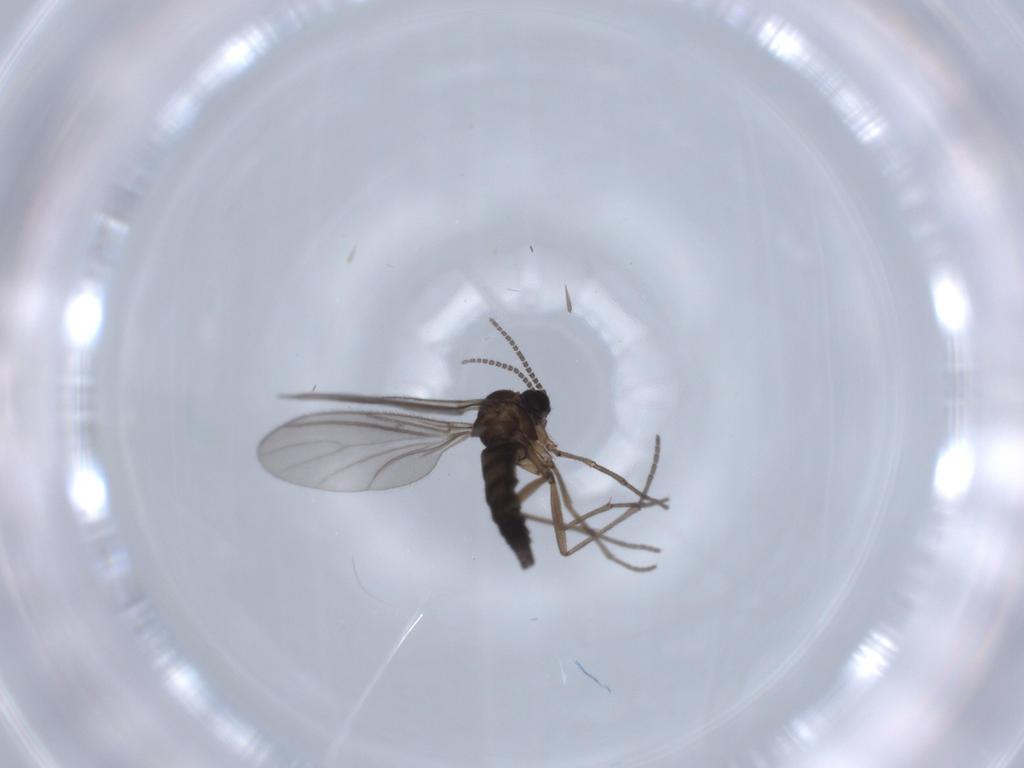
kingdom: Animalia
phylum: Arthropoda
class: Insecta
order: Diptera
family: Sciaridae
